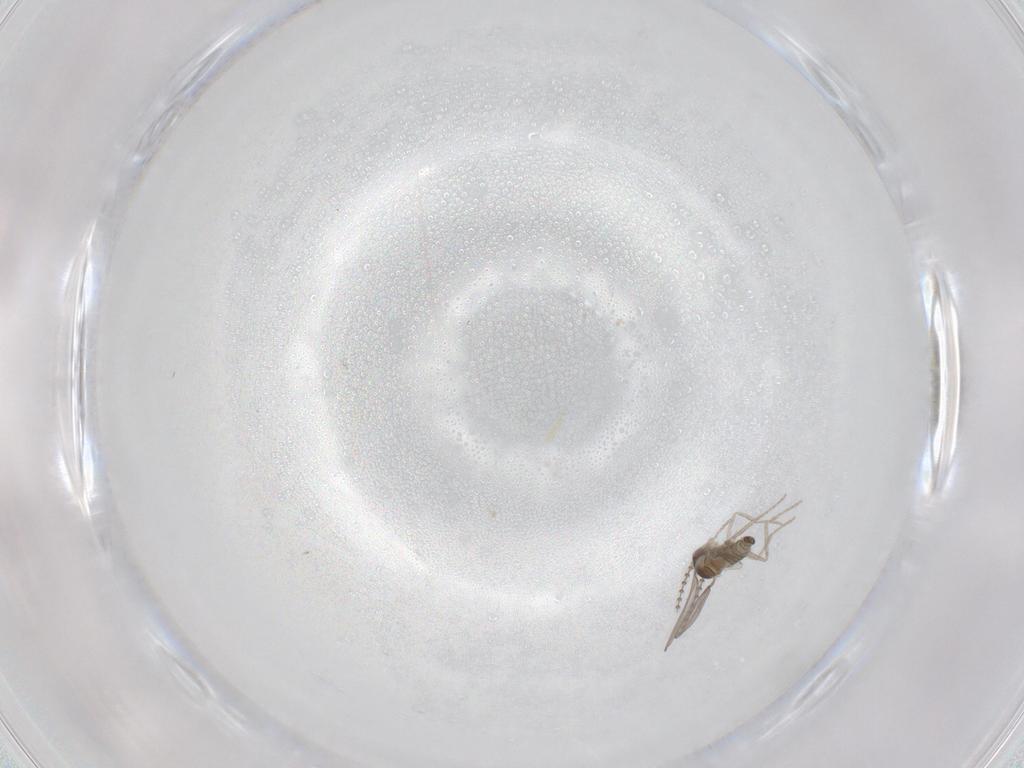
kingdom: Animalia
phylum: Arthropoda
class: Insecta
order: Diptera
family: Cecidomyiidae
